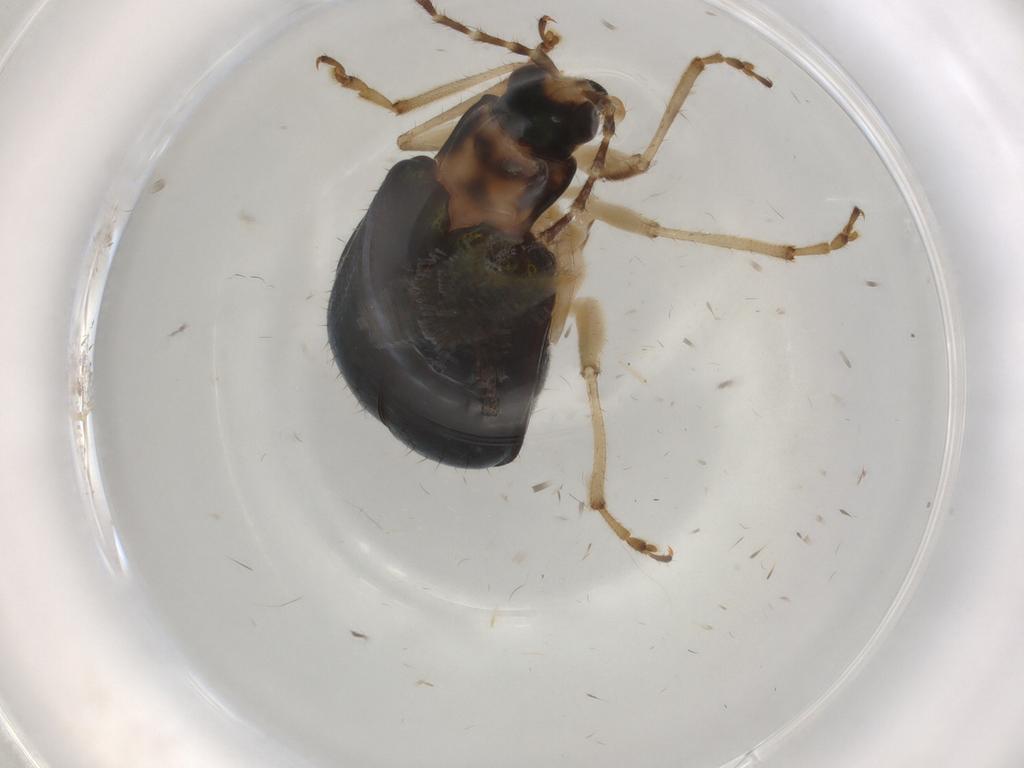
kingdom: Animalia
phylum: Arthropoda
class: Insecta
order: Coleoptera
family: Chrysomelidae
